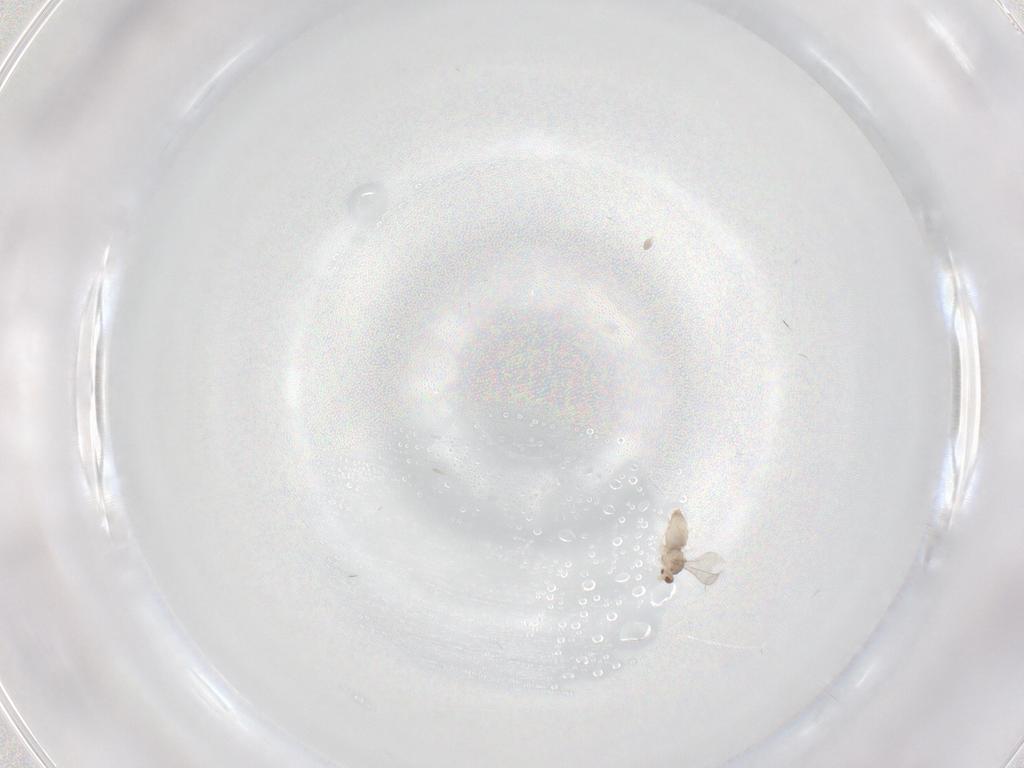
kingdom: Animalia
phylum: Arthropoda
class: Insecta
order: Diptera
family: Cecidomyiidae
